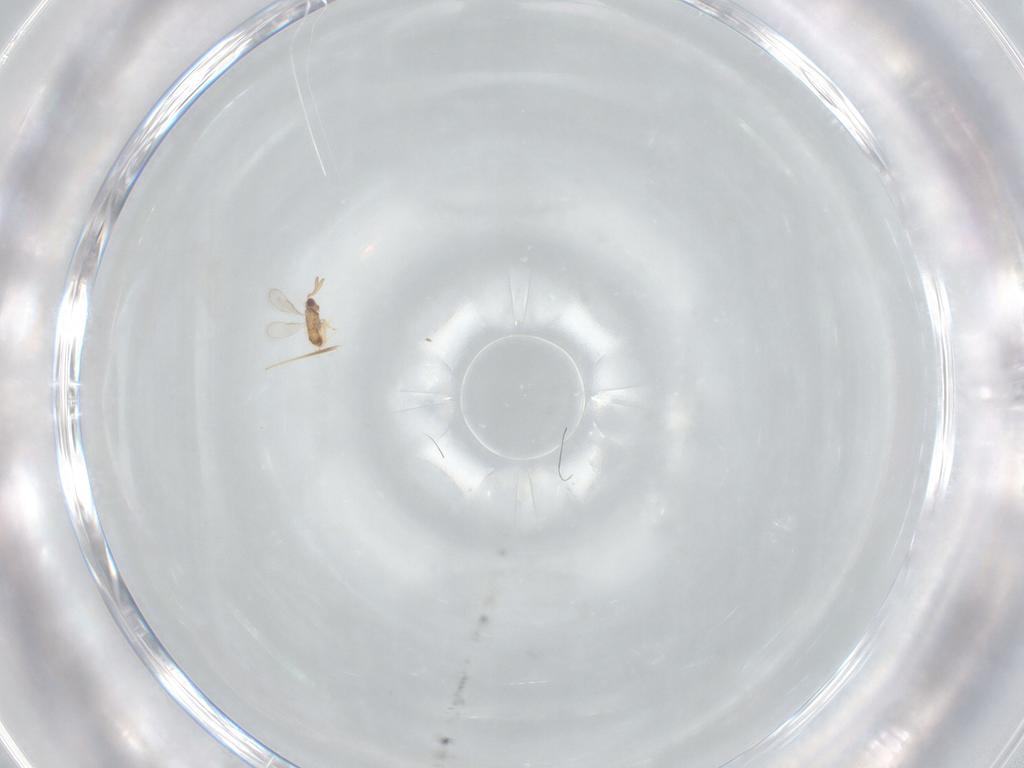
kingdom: Animalia
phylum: Arthropoda
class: Insecta
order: Hymenoptera
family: Aphelinidae
